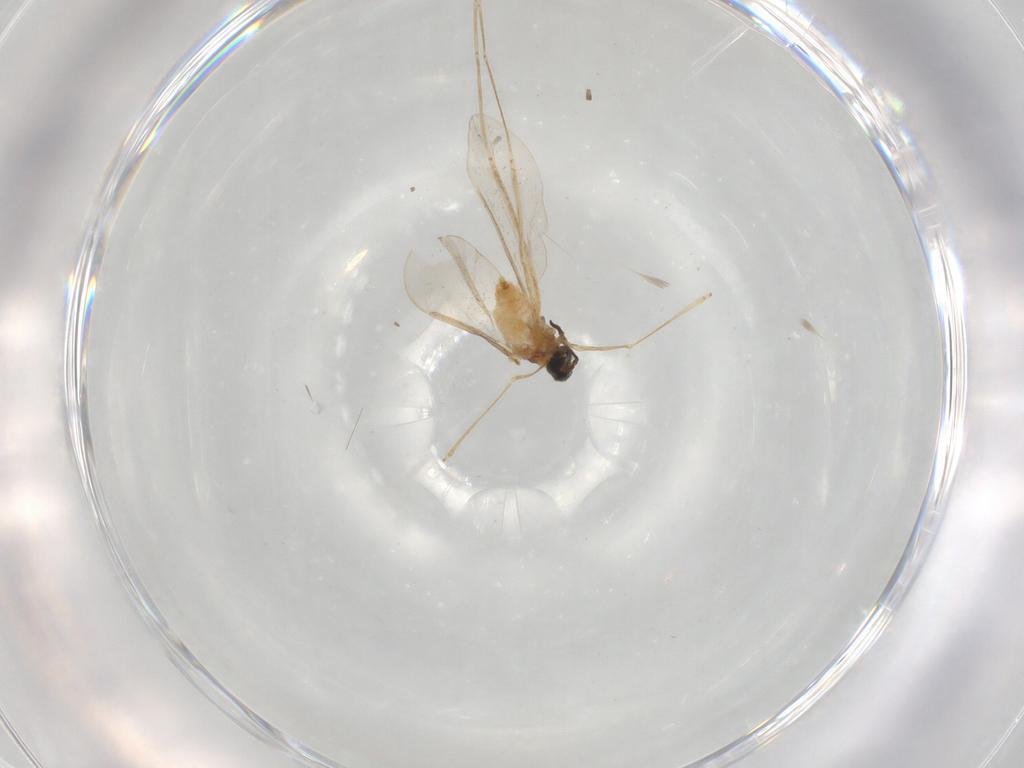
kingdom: Animalia
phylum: Arthropoda
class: Insecta
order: Diptera
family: Cecidomyiidae
